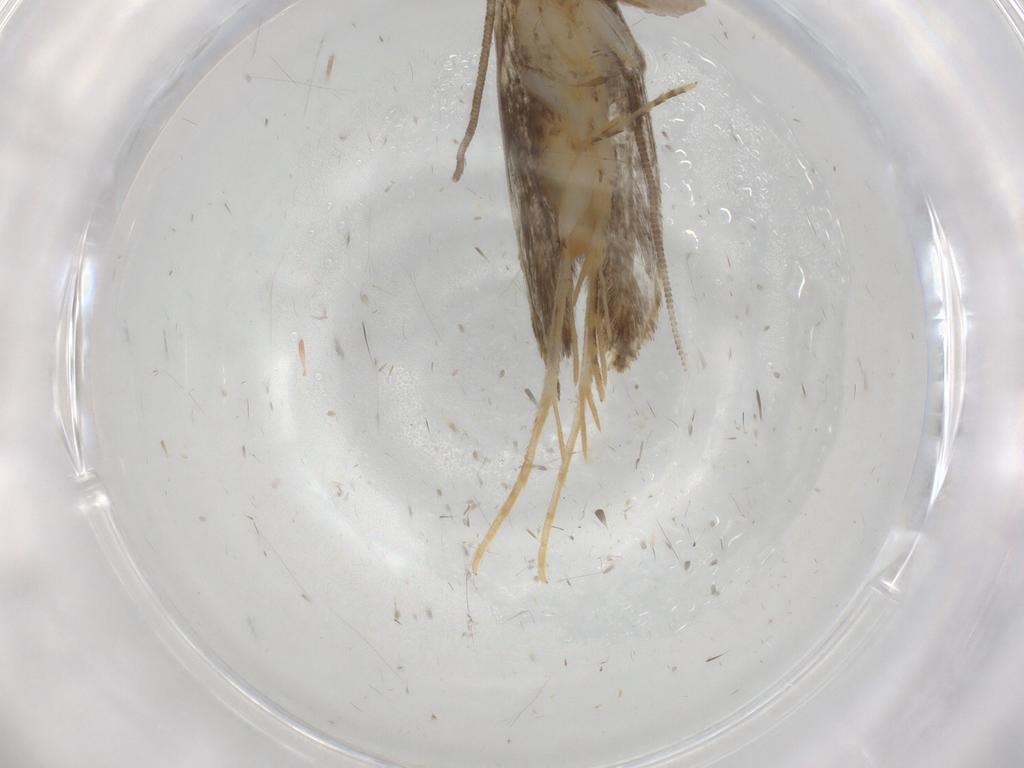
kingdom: Animalia
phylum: Arthropoda
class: Insecta
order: Lepidoptera
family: Tineidae
